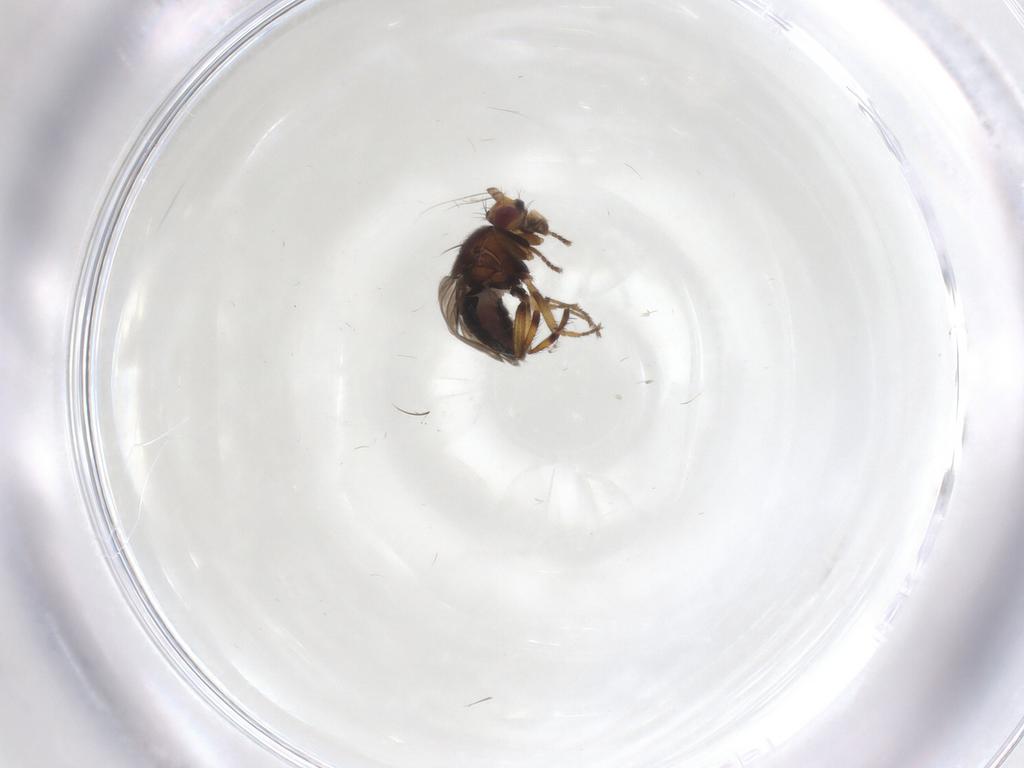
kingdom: Animalia
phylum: Arthropoda
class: Insecta
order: Diptera
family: Sphaeroceridae
